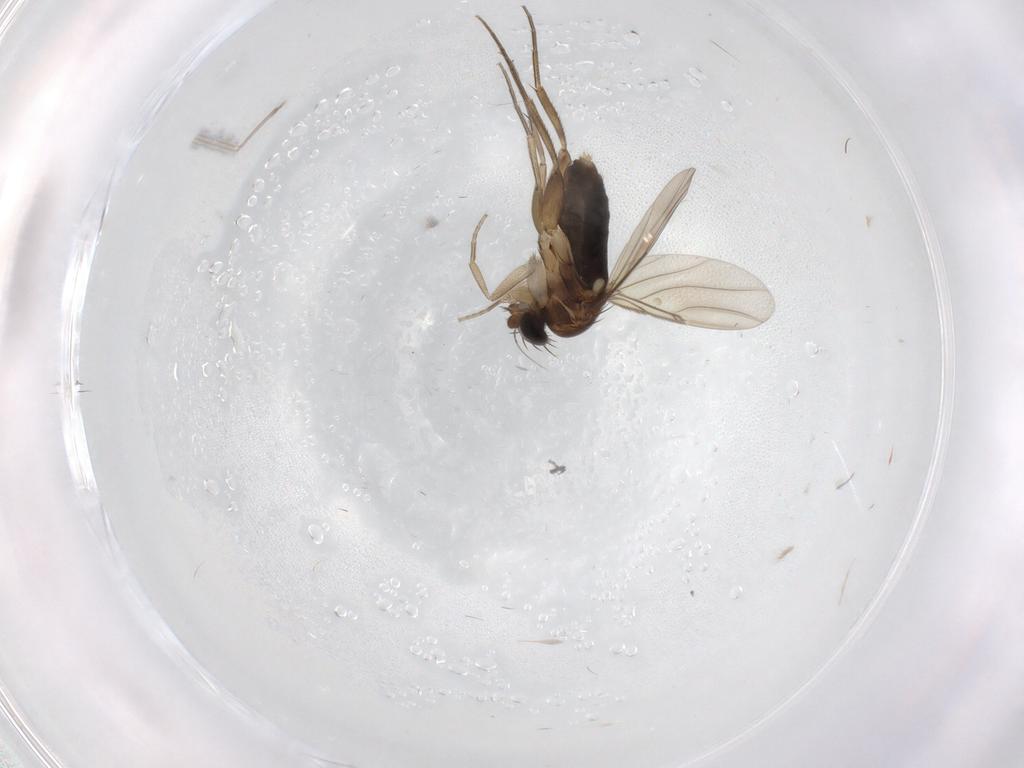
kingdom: Animalia
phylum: Arthropoda
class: Insecta
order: Diptera
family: Phoridae
